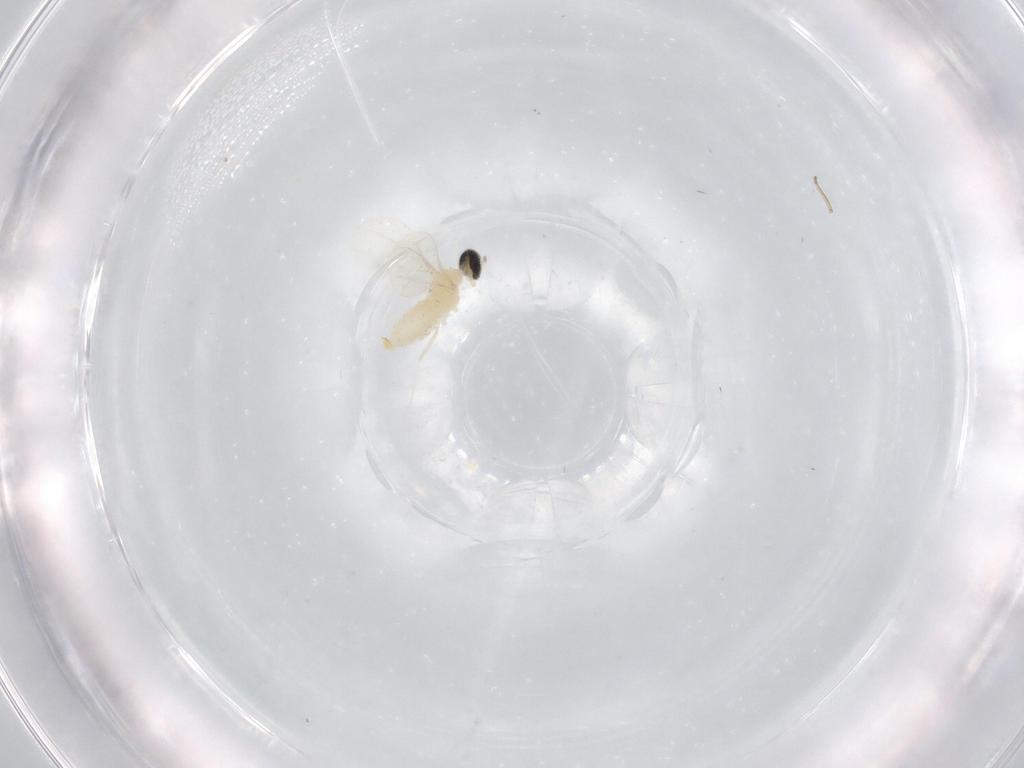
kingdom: Animalia
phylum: Arthropoda
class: Insecta
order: Diptera
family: Cecidomyiidae
